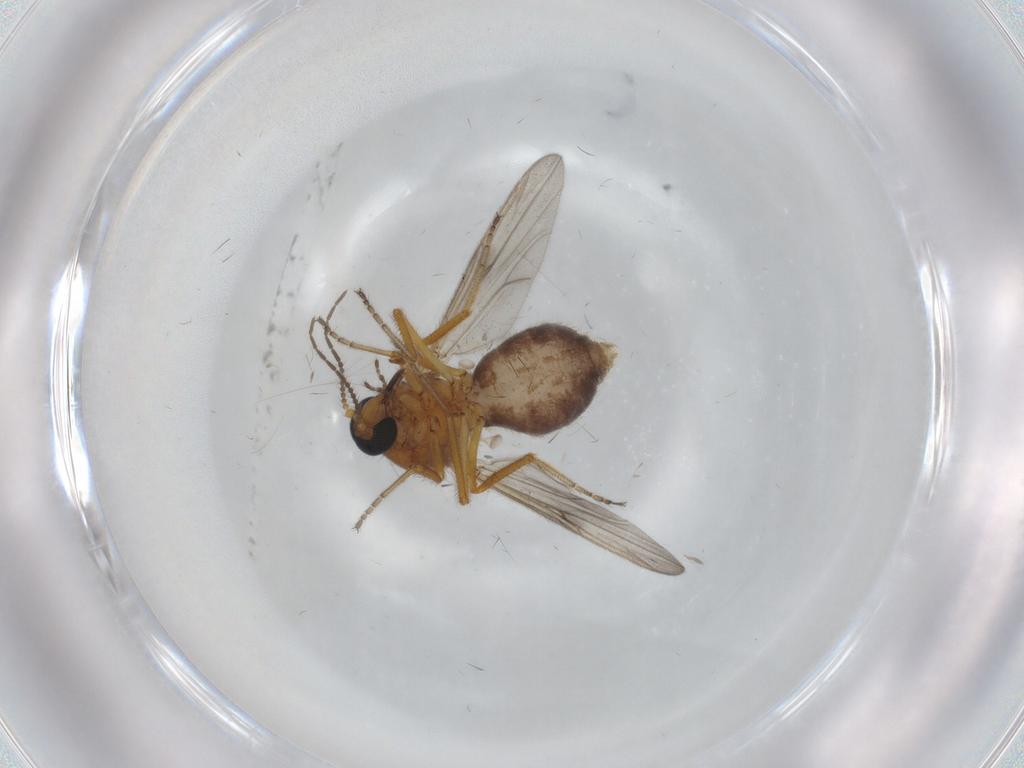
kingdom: Animalia
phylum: Arthropoda
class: Insecta
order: Diptera
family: Ceratopogonidae
